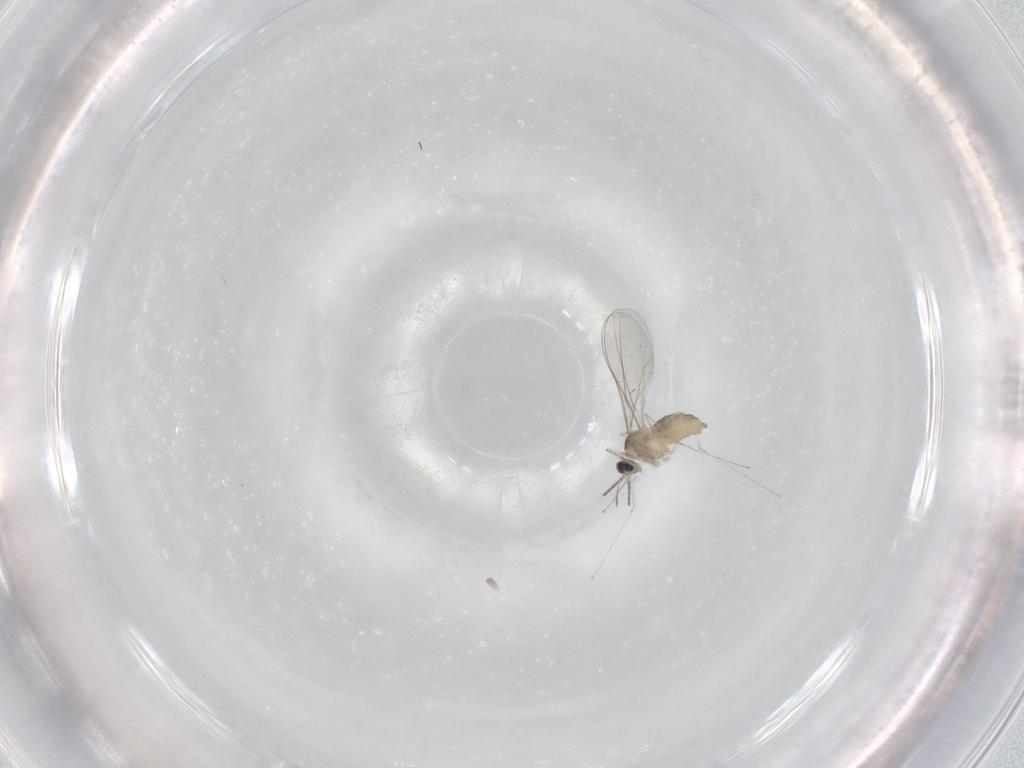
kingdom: Animalia
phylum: Arthropoda
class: Insecta
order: Diptera
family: Cecidomyiidae
